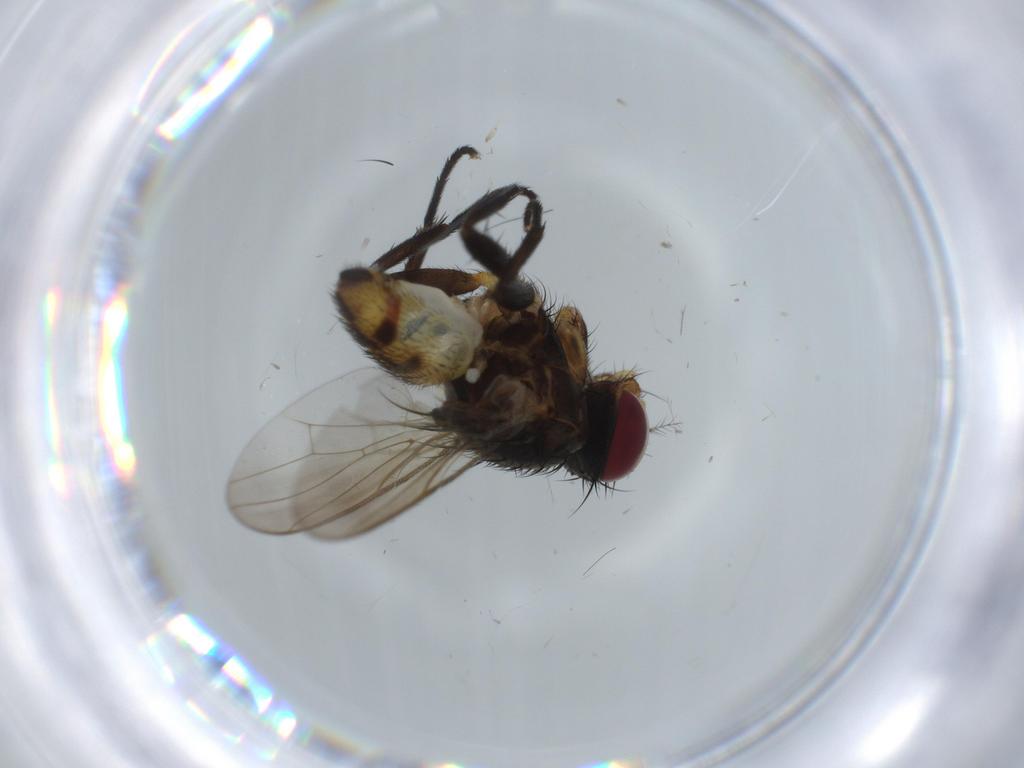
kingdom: Animalia
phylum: Arthropoda
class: Insecta
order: Diptera
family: Anthomyiidae
